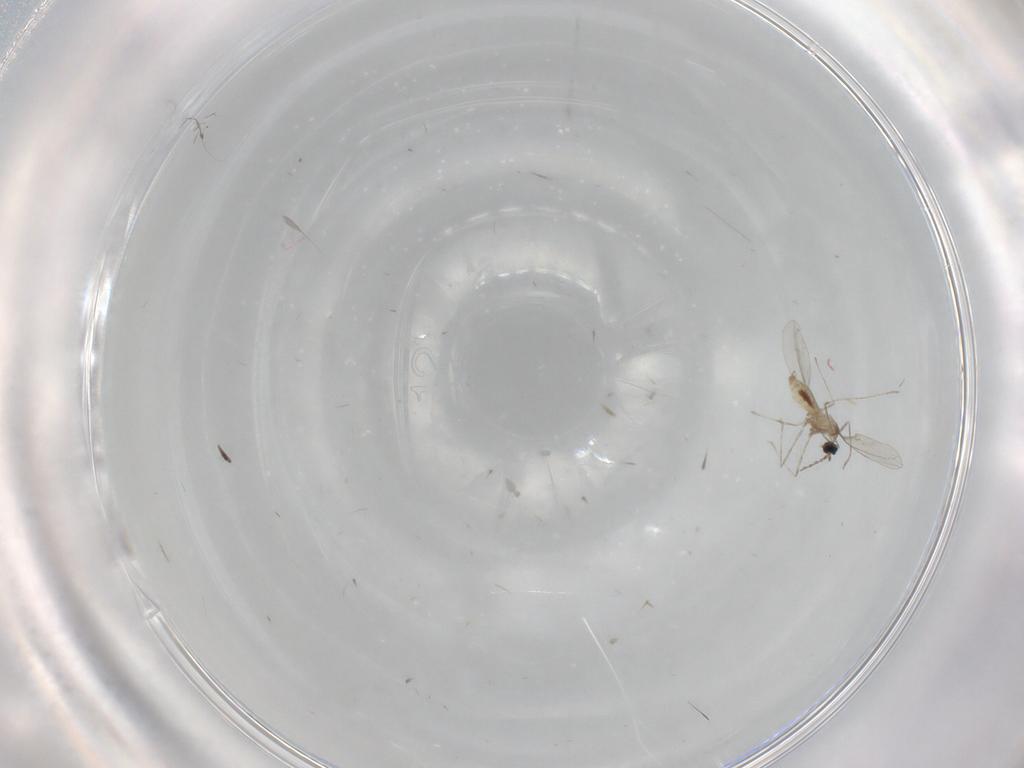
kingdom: Animalia
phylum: Arthropoda
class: Insecta
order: Diptera
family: Cecidomyiidae
